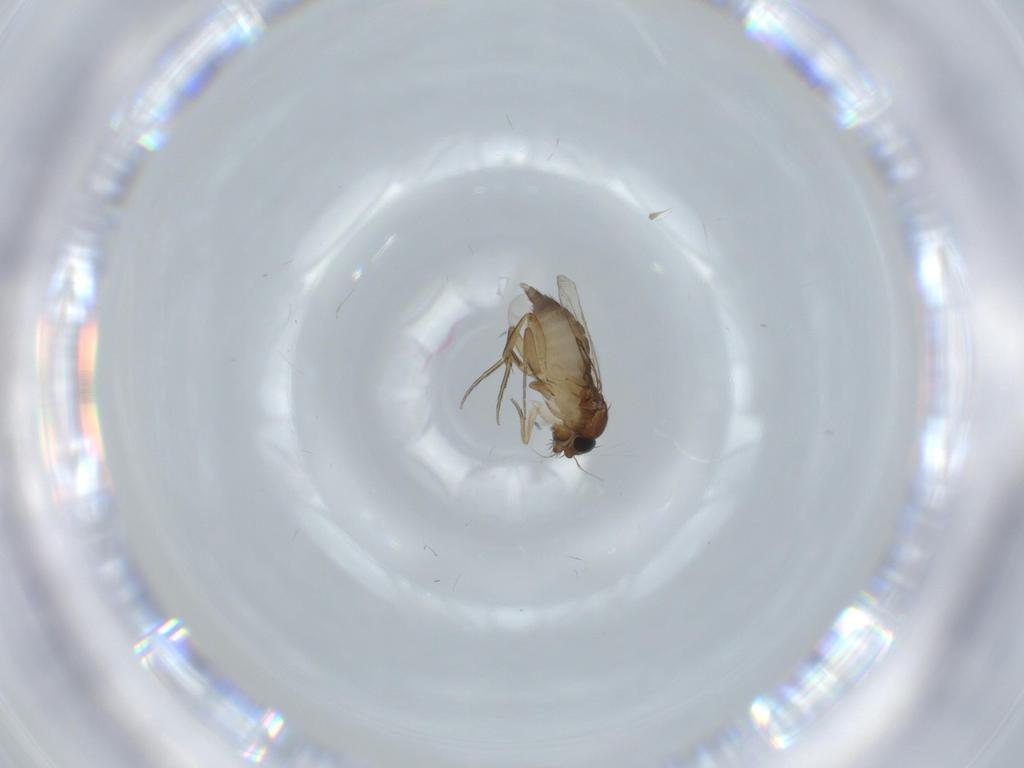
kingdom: Animalia
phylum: Arthropoda
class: Insecta
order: Diptera
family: Phoridae
